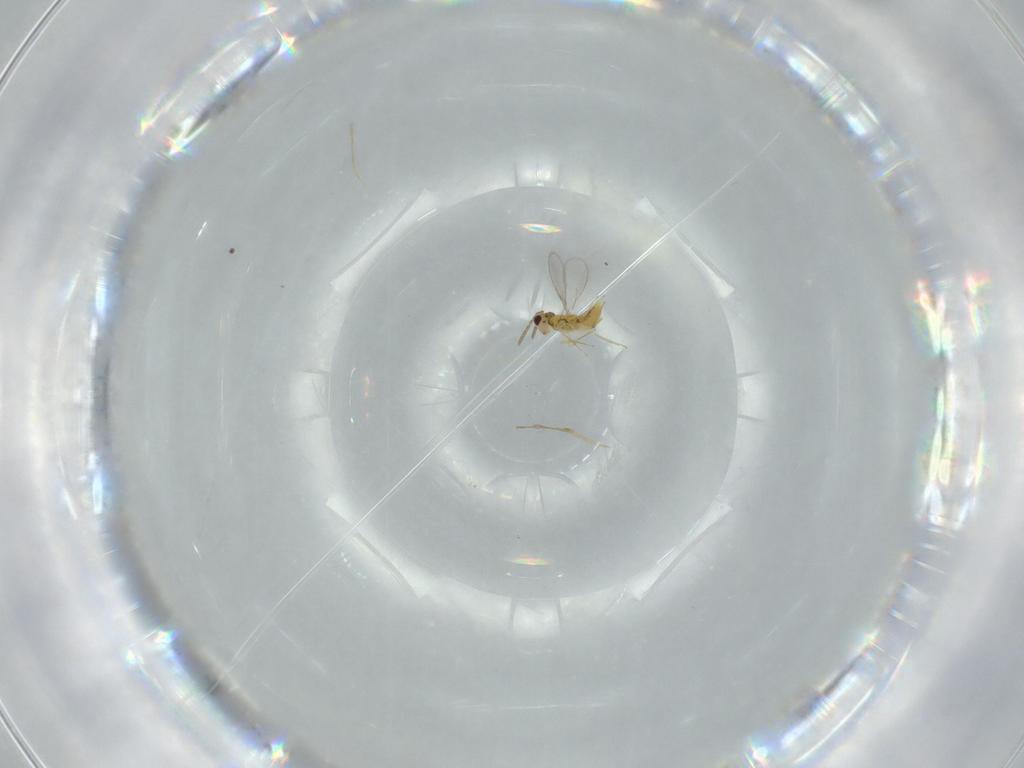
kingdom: Animalia
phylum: Arthropoda
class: Insecta
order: Hymenoptera
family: Aphelinidae
